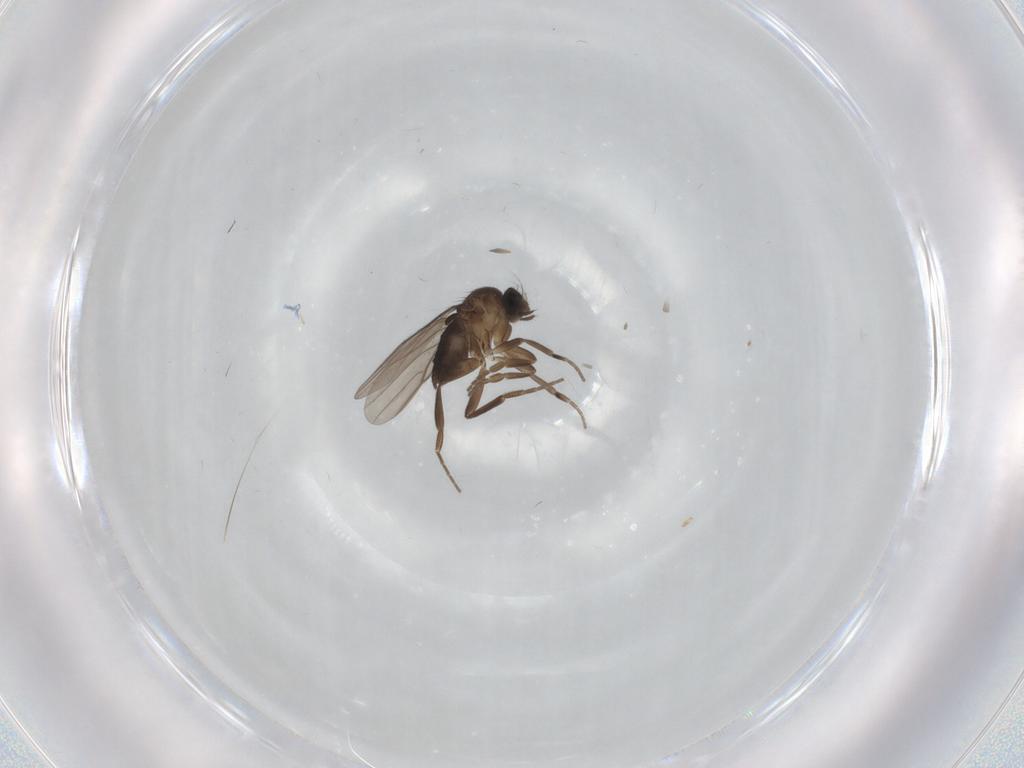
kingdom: Animalia
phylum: Arthropoda
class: Insecta
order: Diptera
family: Phoridae
